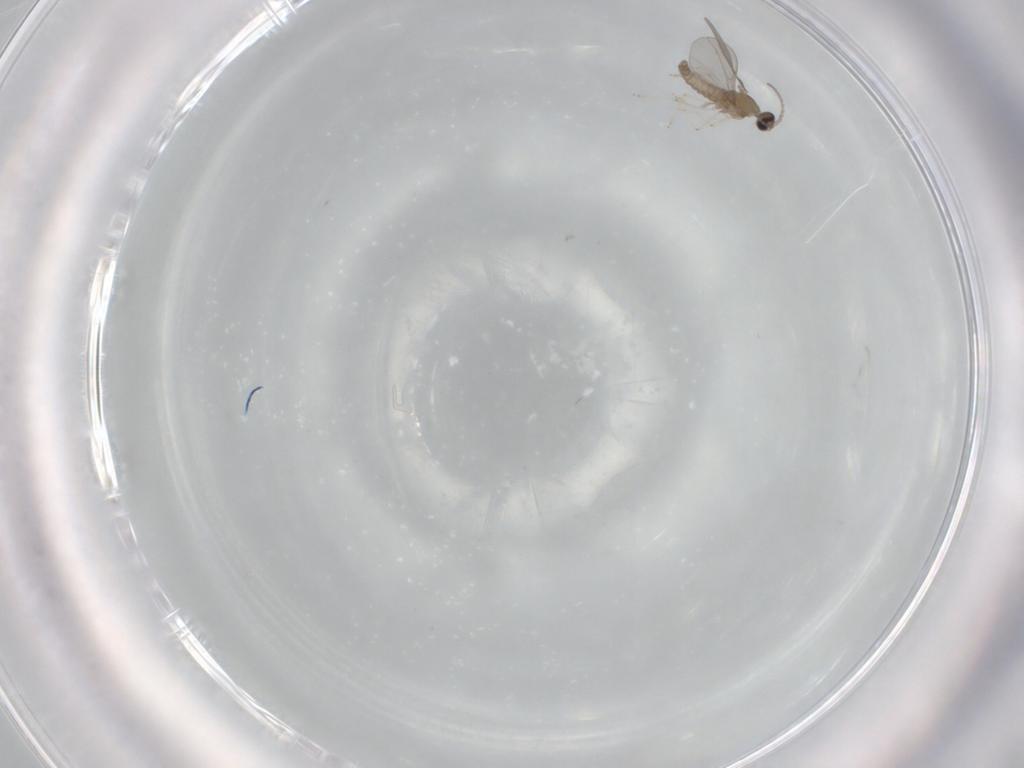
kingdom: Animalia
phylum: Arthropoda
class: Insecta
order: Diptera
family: Cecidomyiidae
